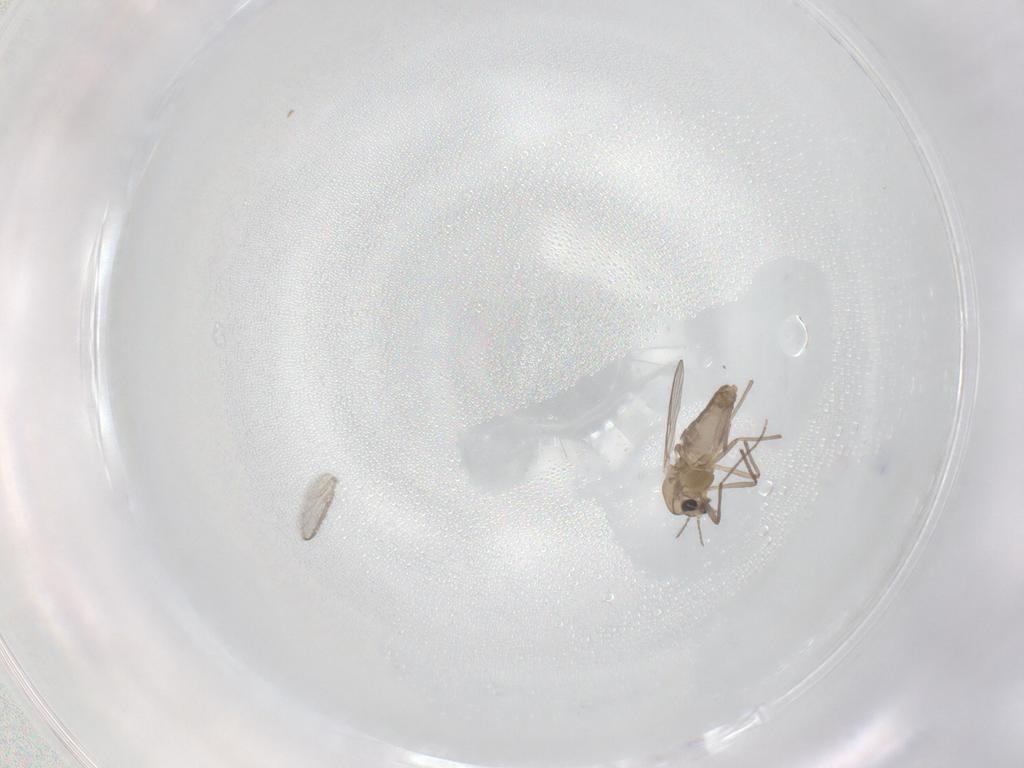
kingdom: Animalia
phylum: Arthropoda
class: Insecta
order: Diptera
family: Chironomidae
